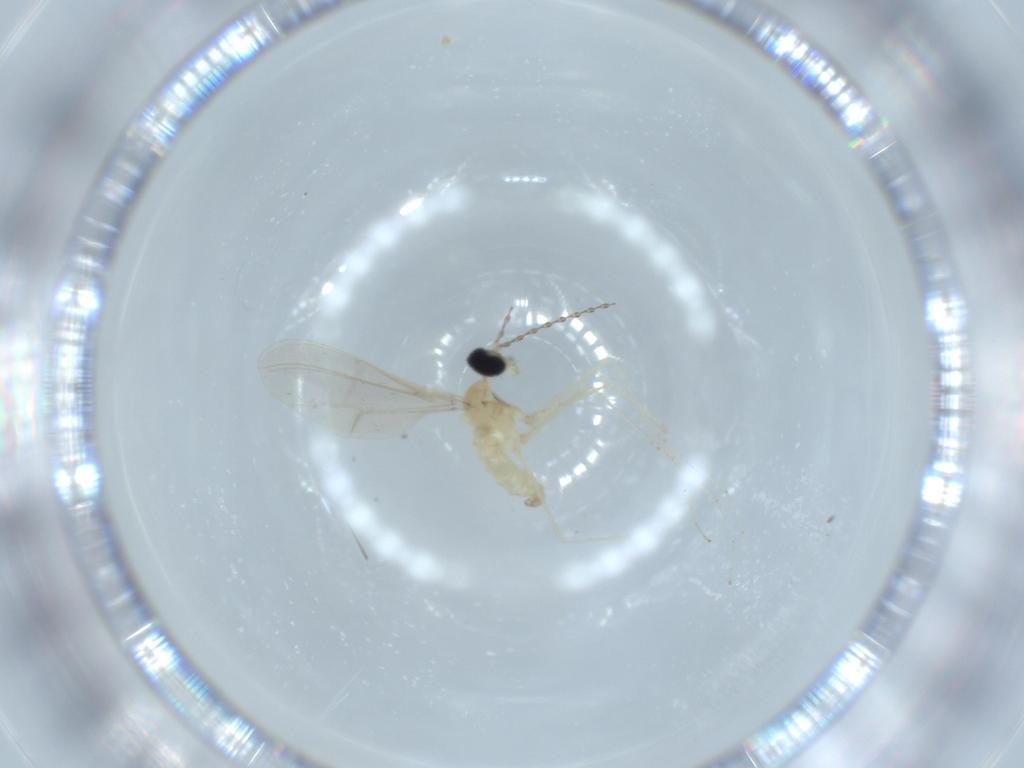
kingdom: Animalia
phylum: Arthropoda
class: Insecta
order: Diptera
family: Cecidomyiidae
